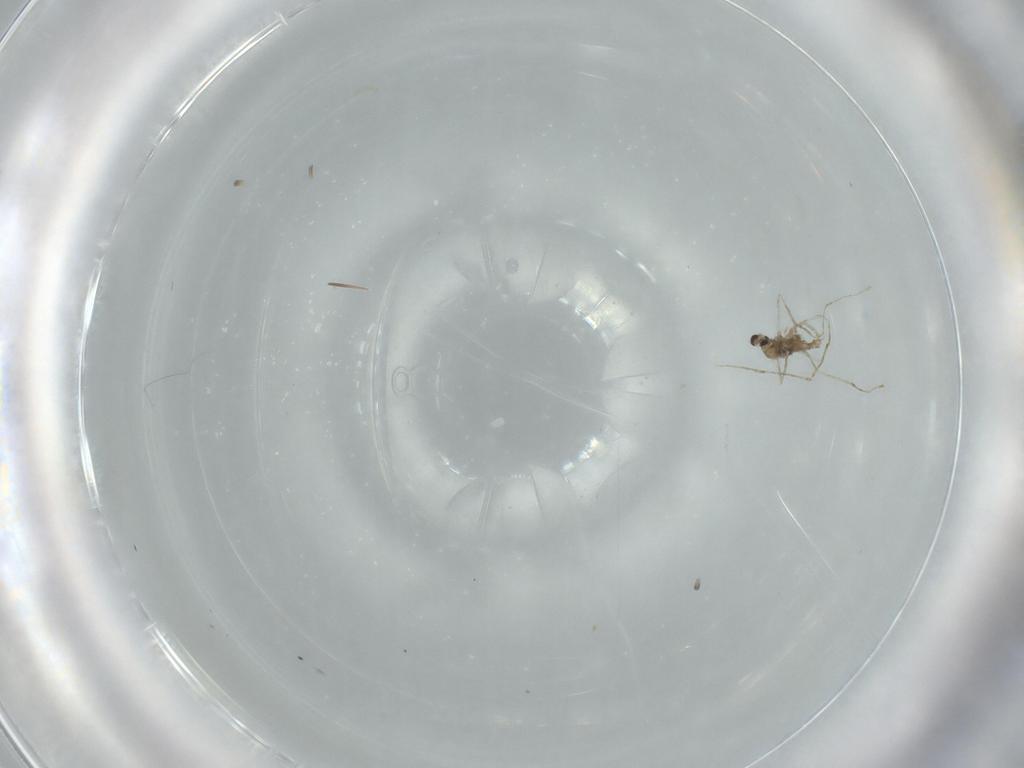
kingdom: Animalia
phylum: Arthropoda
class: Insecta
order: Diptera
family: Cecidomyiidae
